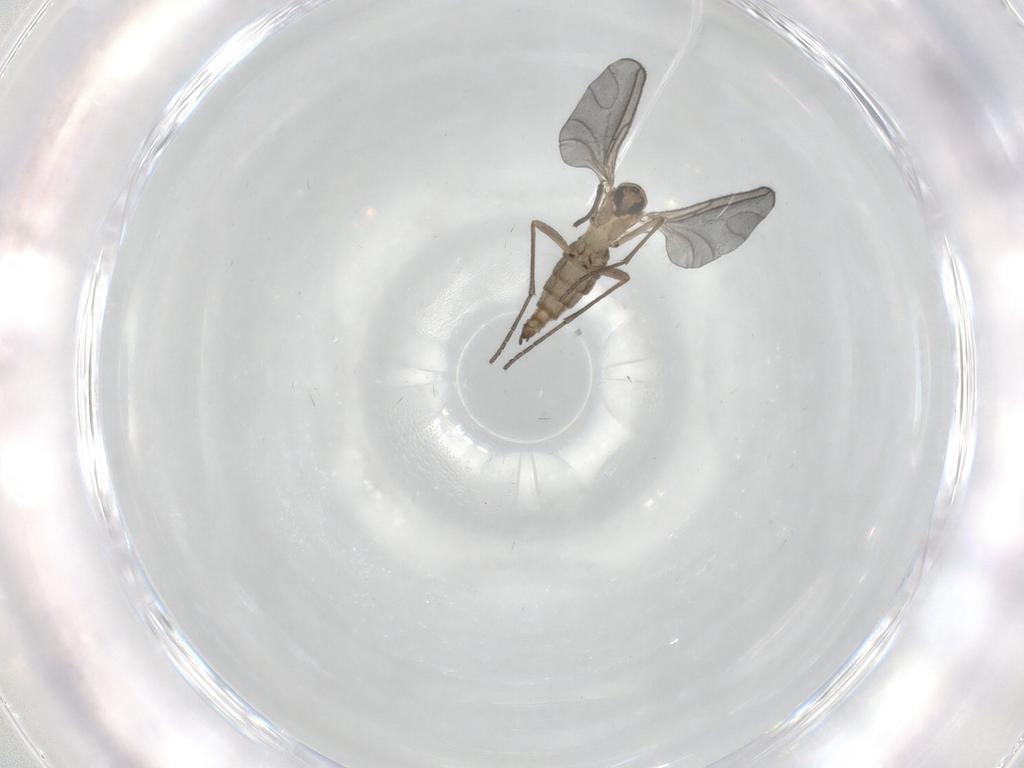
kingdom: Animalia
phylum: Arthropoda
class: Insecta
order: Diptera
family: Sciaridae
